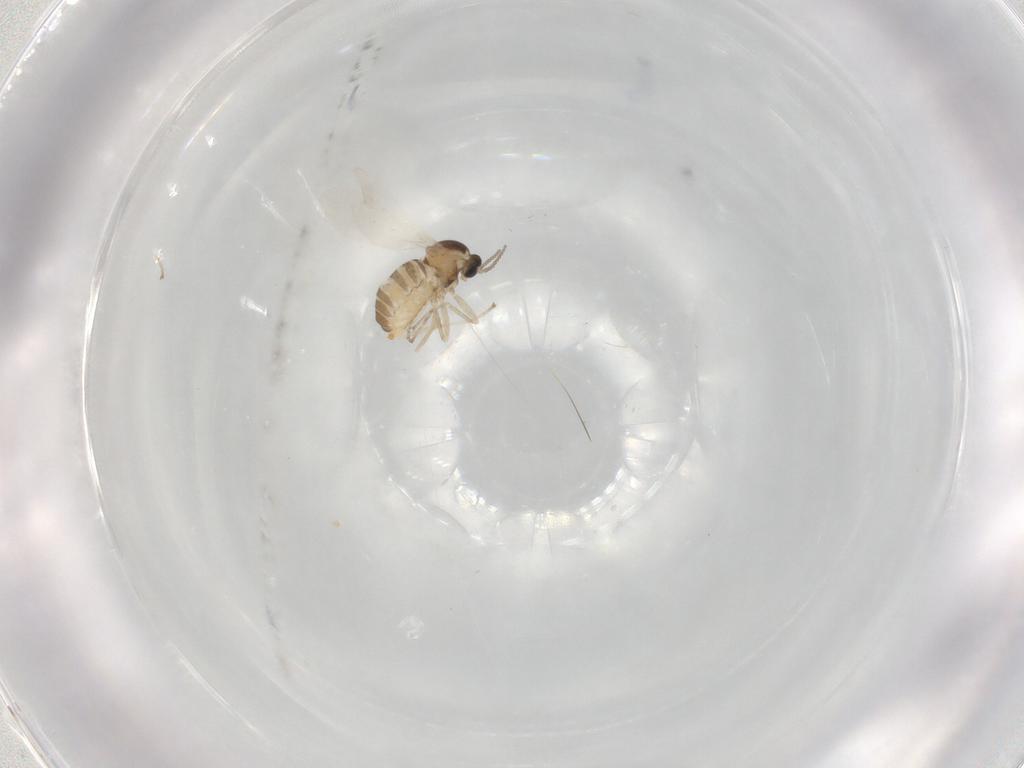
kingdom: Animalia
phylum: Arthropoda
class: Insecta
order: Diptera
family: Cecidomyiidae
